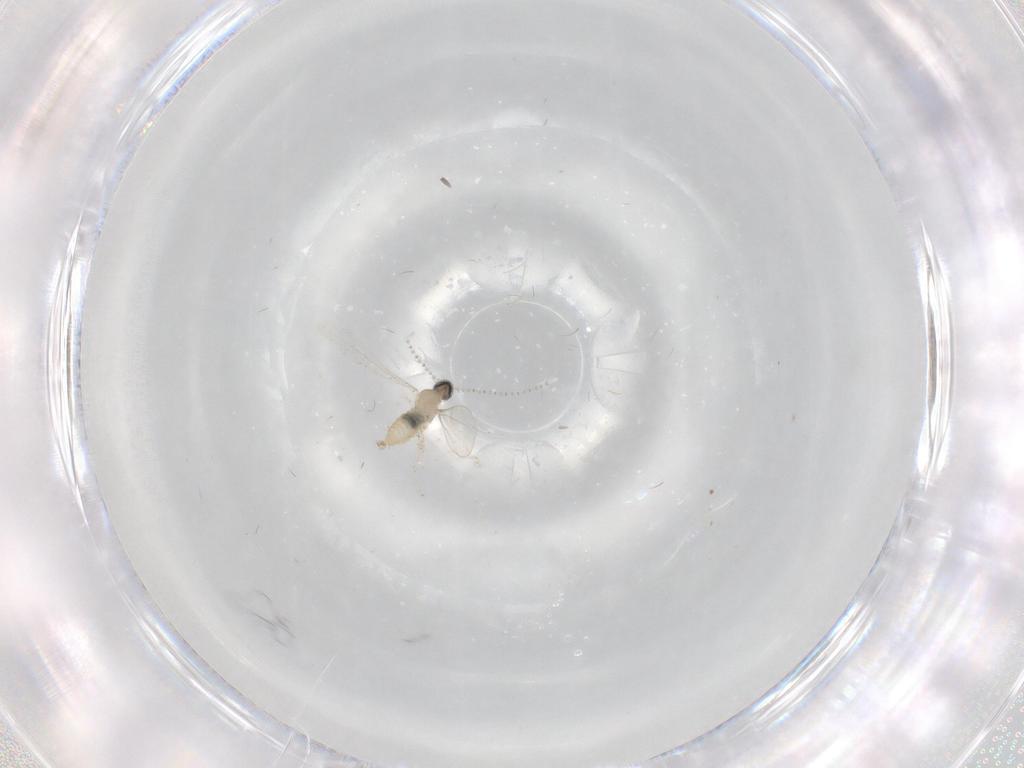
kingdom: Animalia
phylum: Arthropoda
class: Insecta
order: Diptera
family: Cecidomyiidae
